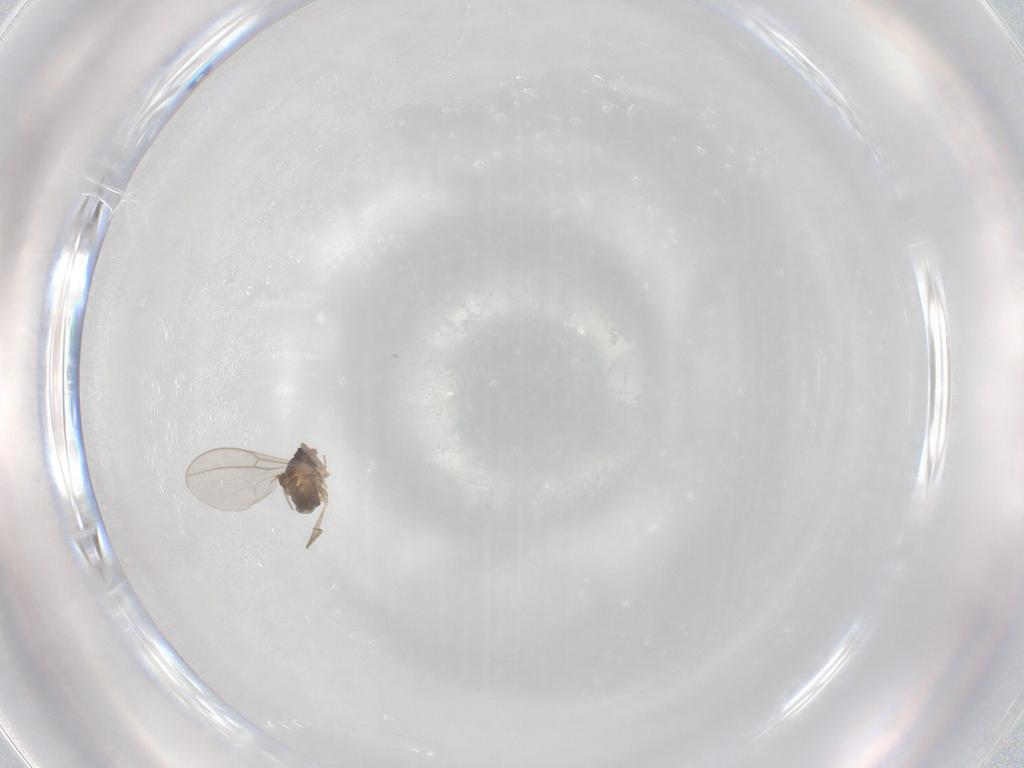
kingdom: Animalia
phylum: Arthropoda
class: Insecta
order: Diptera
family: Cecidomyiidae
